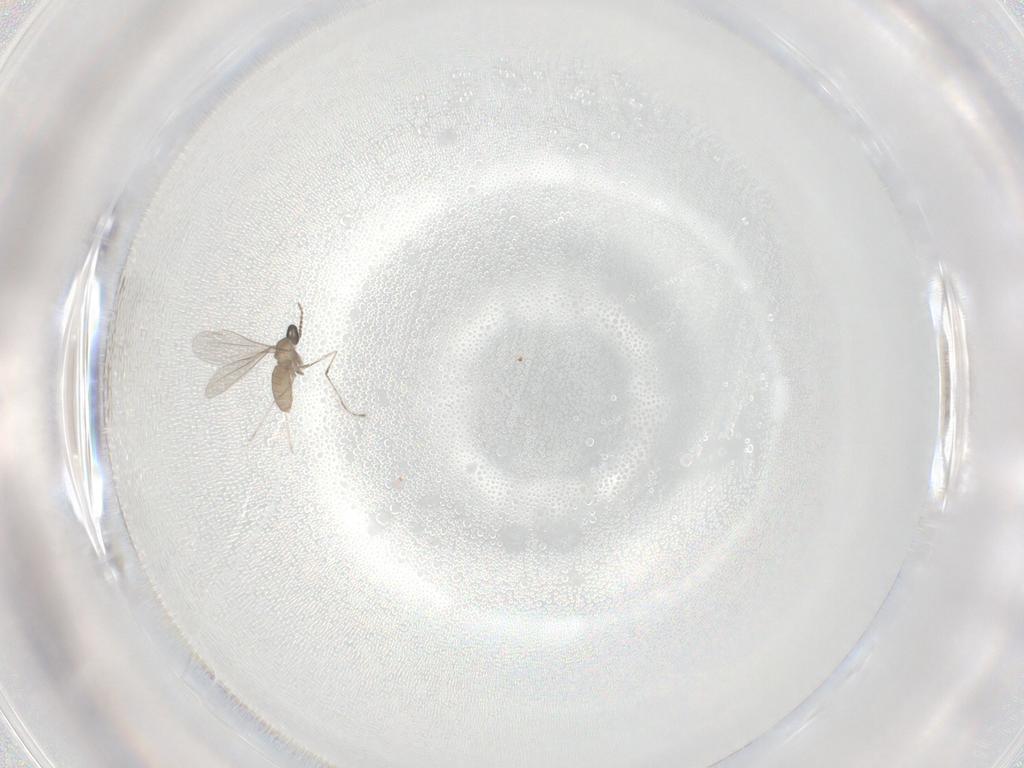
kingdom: Animalia
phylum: Arthropoda
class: Insecta
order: Diptera
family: Cecidomyiidae
